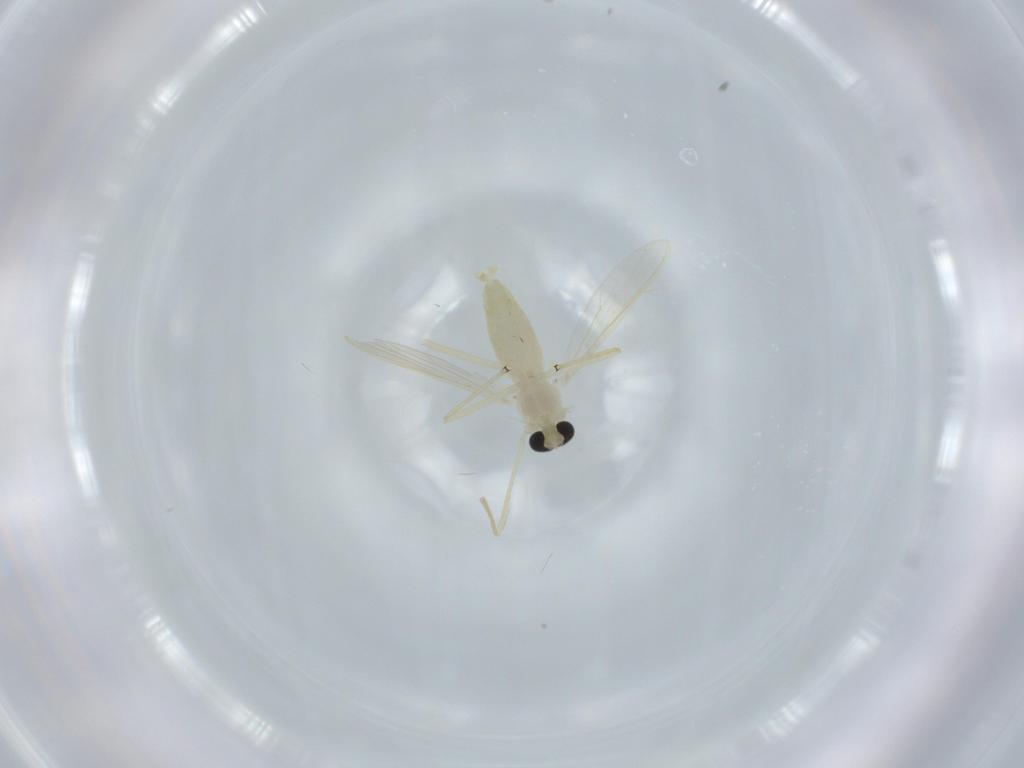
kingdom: Animalia
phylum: Arthropoda
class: Insecta
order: Diptera
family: Chironomidae
